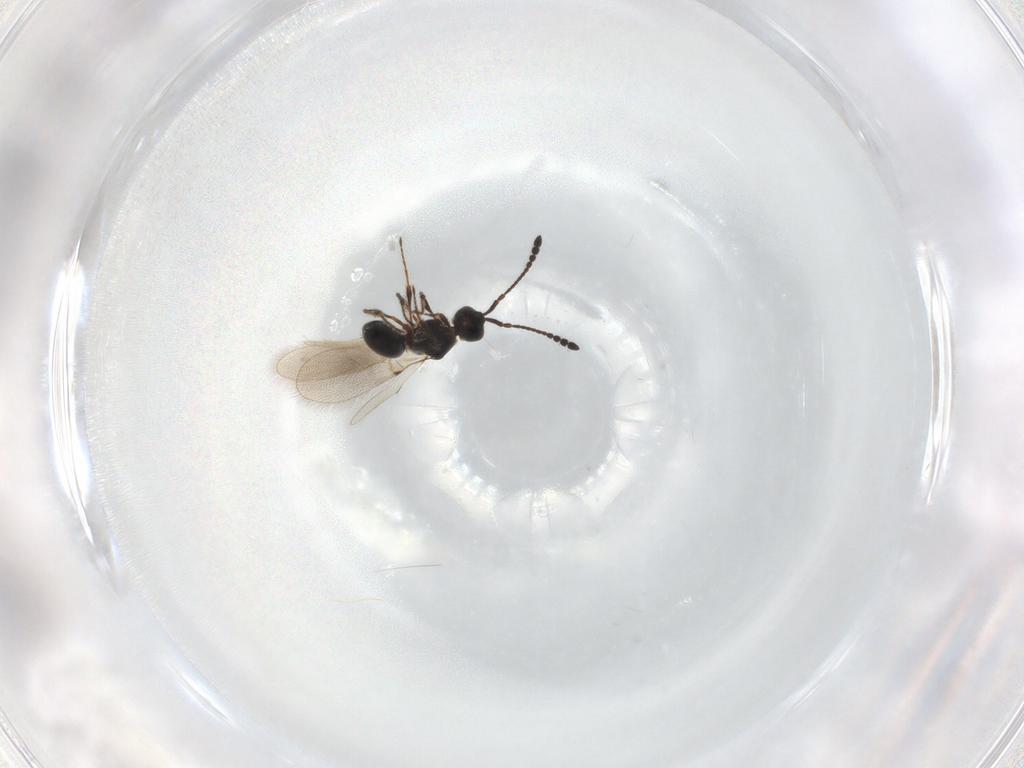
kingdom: Animalia
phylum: Arthropoda
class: Insecta
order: Hymenoptera
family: Diapriidae
